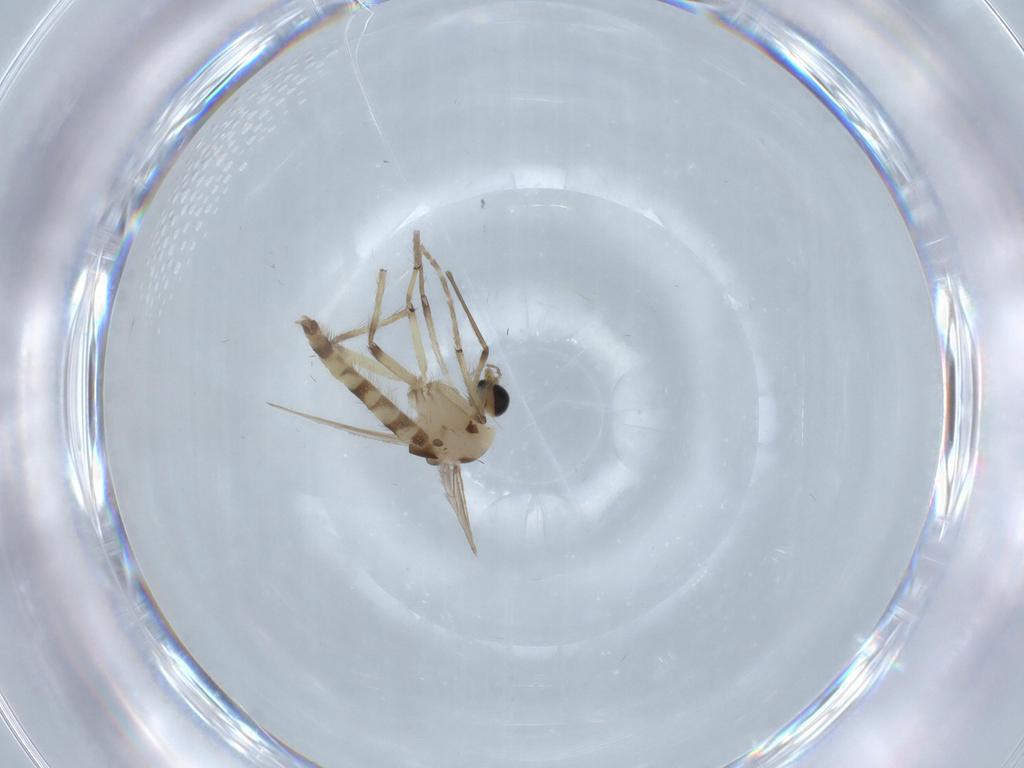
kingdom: Animalia
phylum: Arthropoda
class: Insecta
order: Diptera
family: Chironomidae
